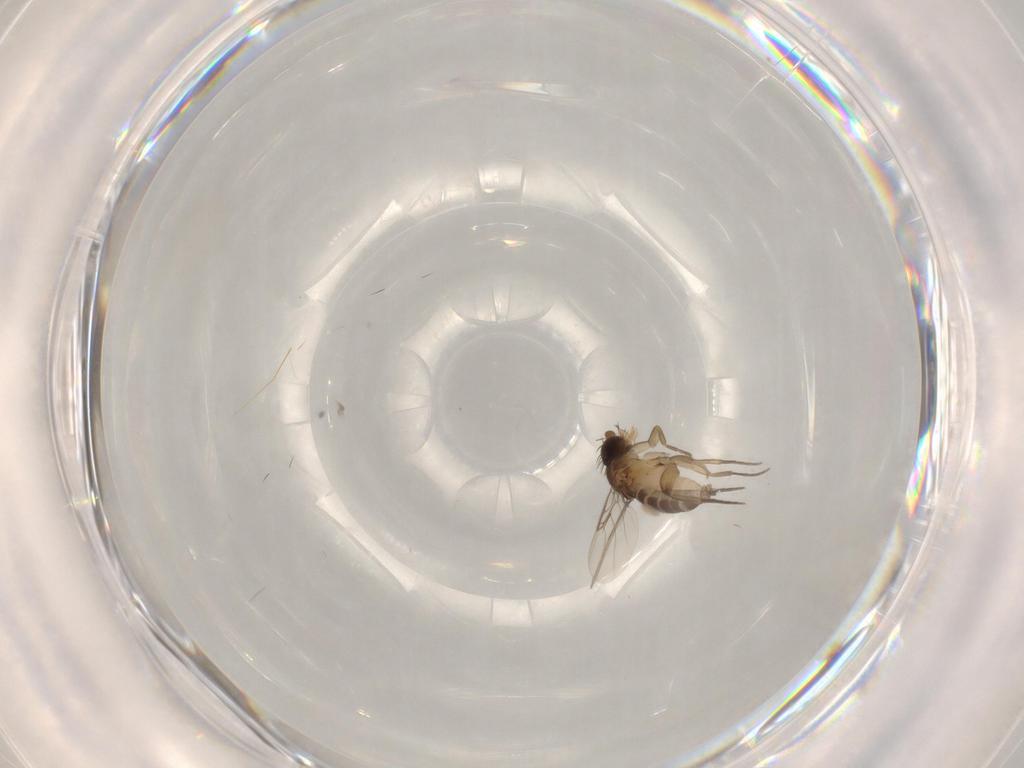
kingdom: Animalia
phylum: Arthropoda
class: Insecta
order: Diptera
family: Phoridae
